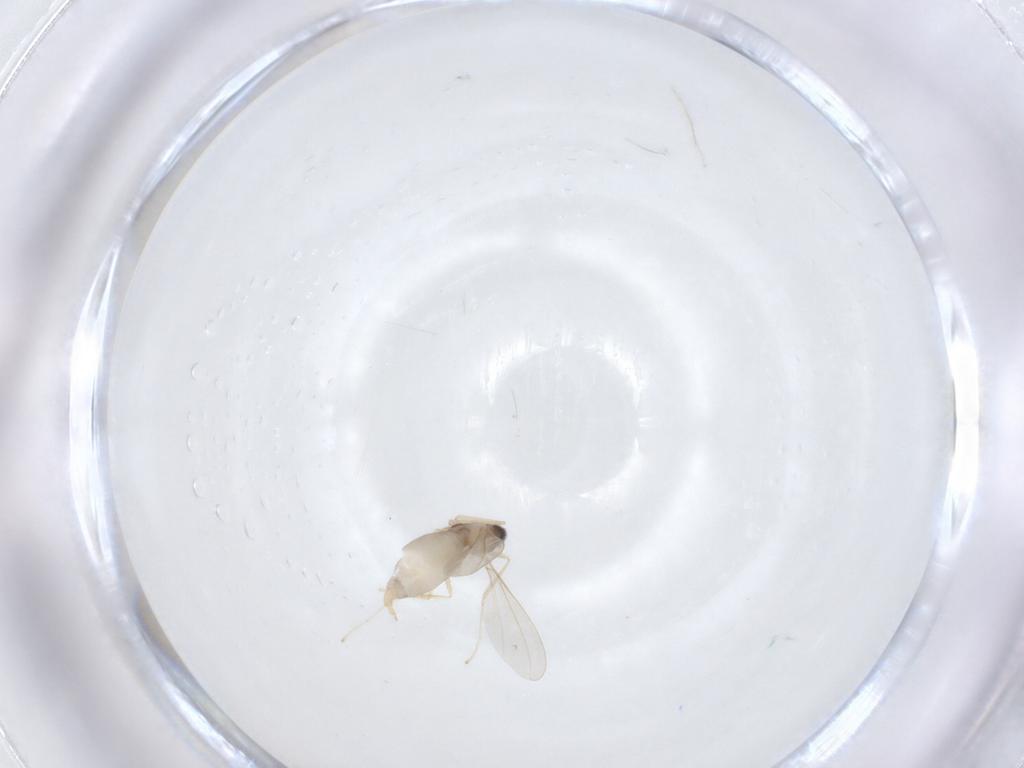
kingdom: Animalia
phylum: Arthropoda
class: Insecta
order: Diptera
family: Cecidomyiidae
